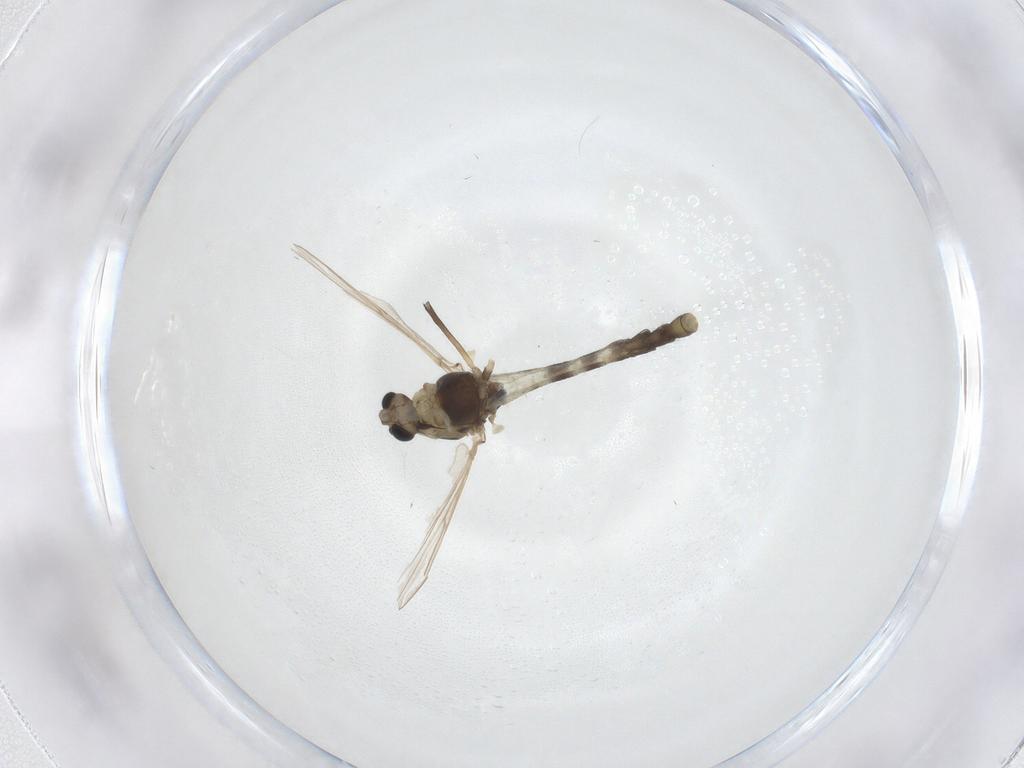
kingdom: Animalia
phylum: Arthropoda
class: Insecta
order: Diptera
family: Hybotidae
